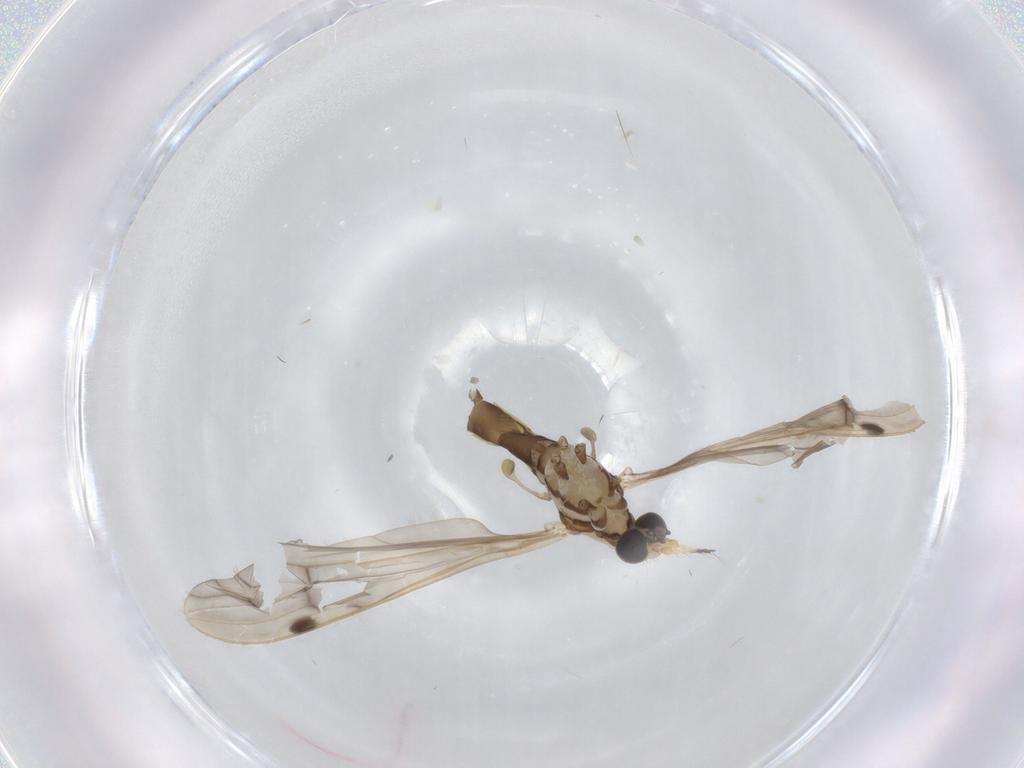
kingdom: Animalia
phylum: Arthropoda
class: Insecta
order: Diptera
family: Limoniidae
